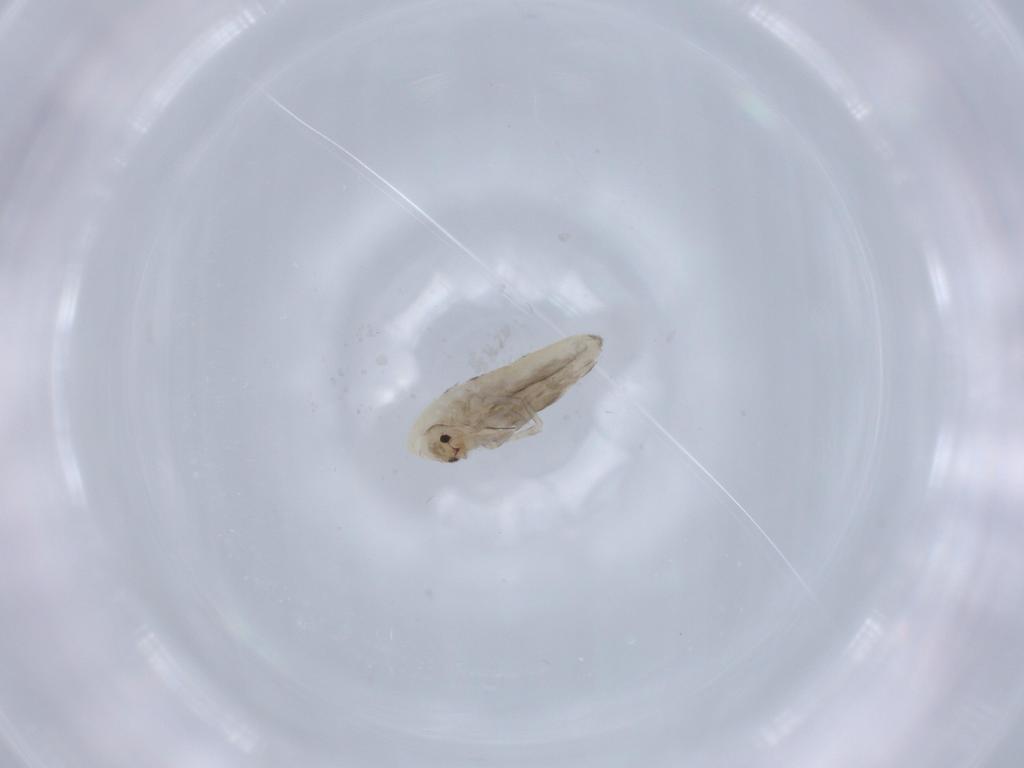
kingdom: Animalia
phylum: Arthropoda
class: Collembola
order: Entomobryomorpha
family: Tomoceridae
